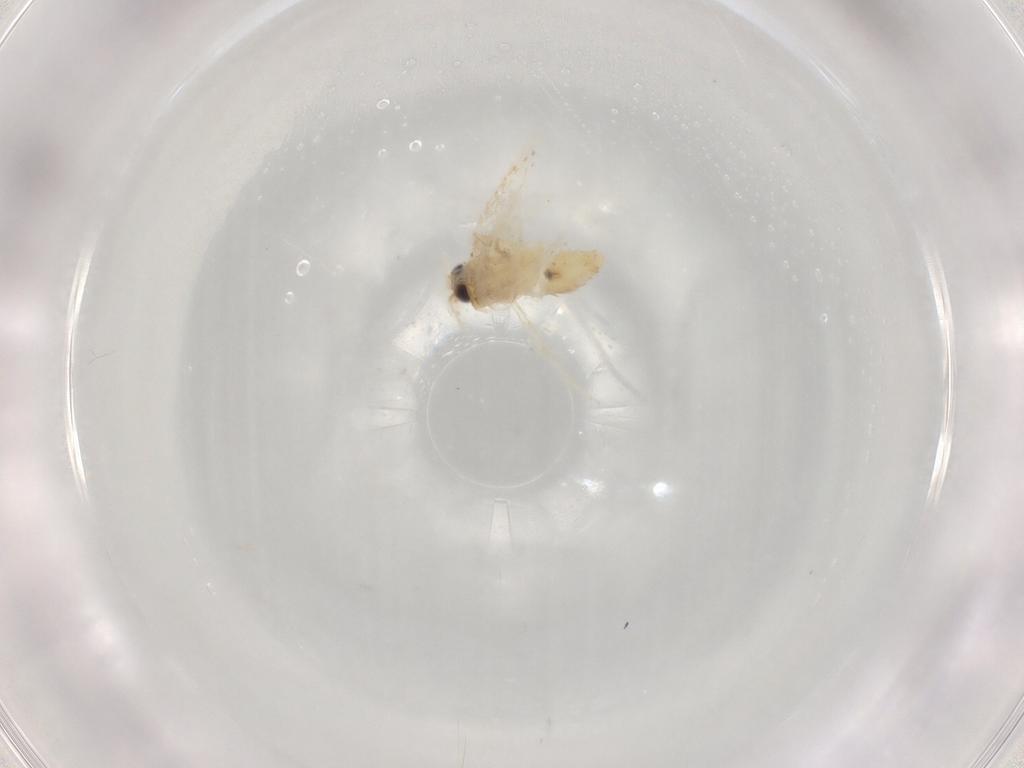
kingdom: Animalia
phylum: Arthropoda
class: Insecta
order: Lepidoptera
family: Nepticulidae
